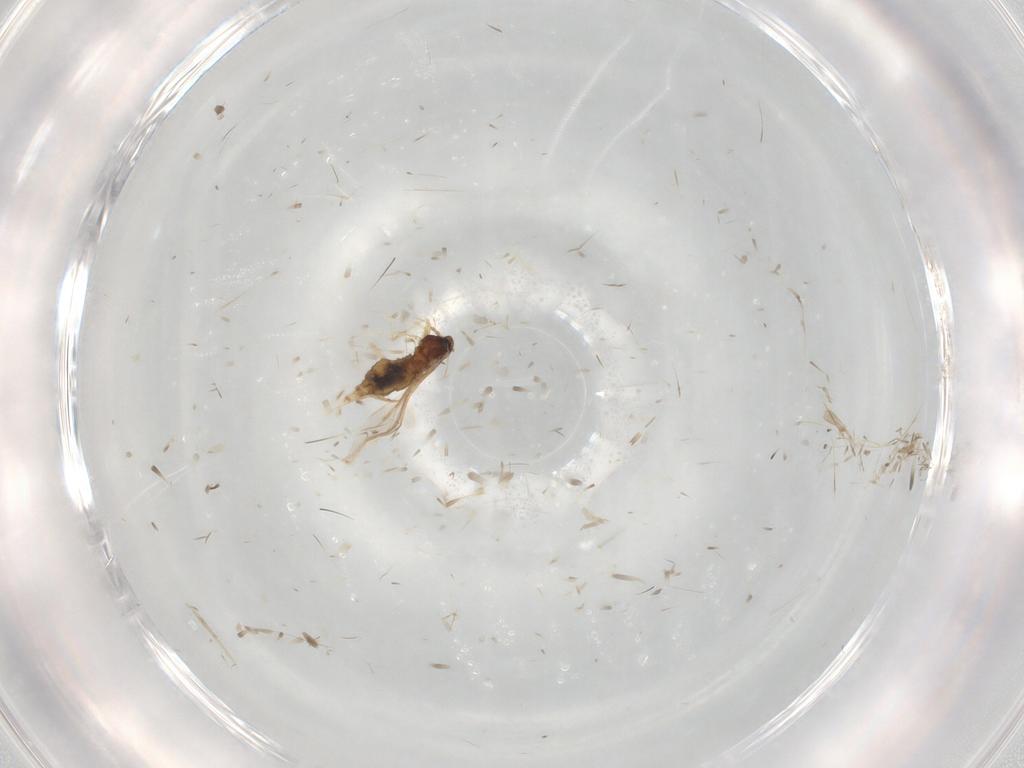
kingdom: Animalia
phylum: Arthropoda
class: Insecta
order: Diptera
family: Cecidomyiidae
